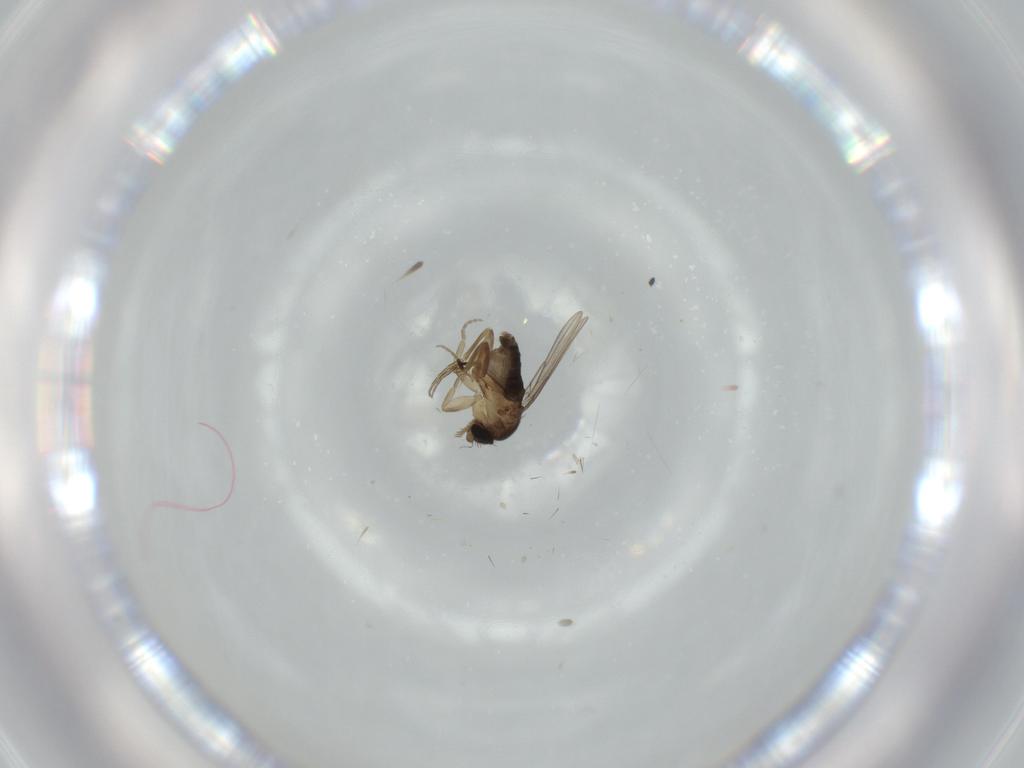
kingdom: Animalia
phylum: Arthropoda
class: Insecta
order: Diptera
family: Phoridae
